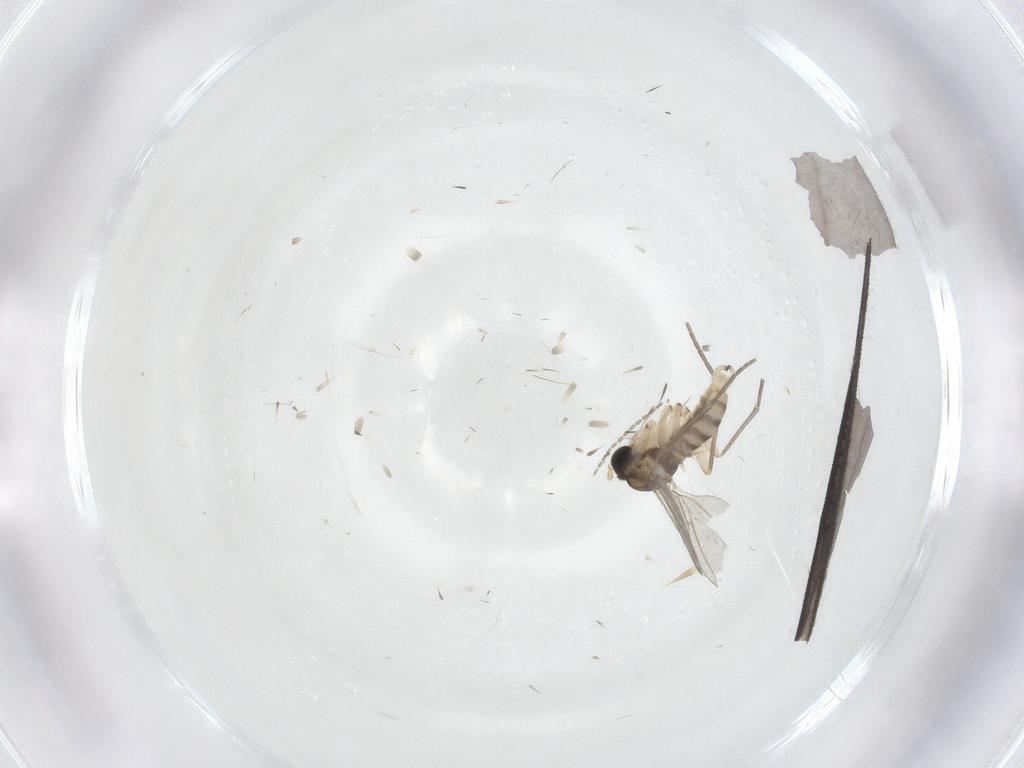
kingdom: Animalia
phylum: Arthropoda
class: Insecta
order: Diptera
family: Sciaridae
